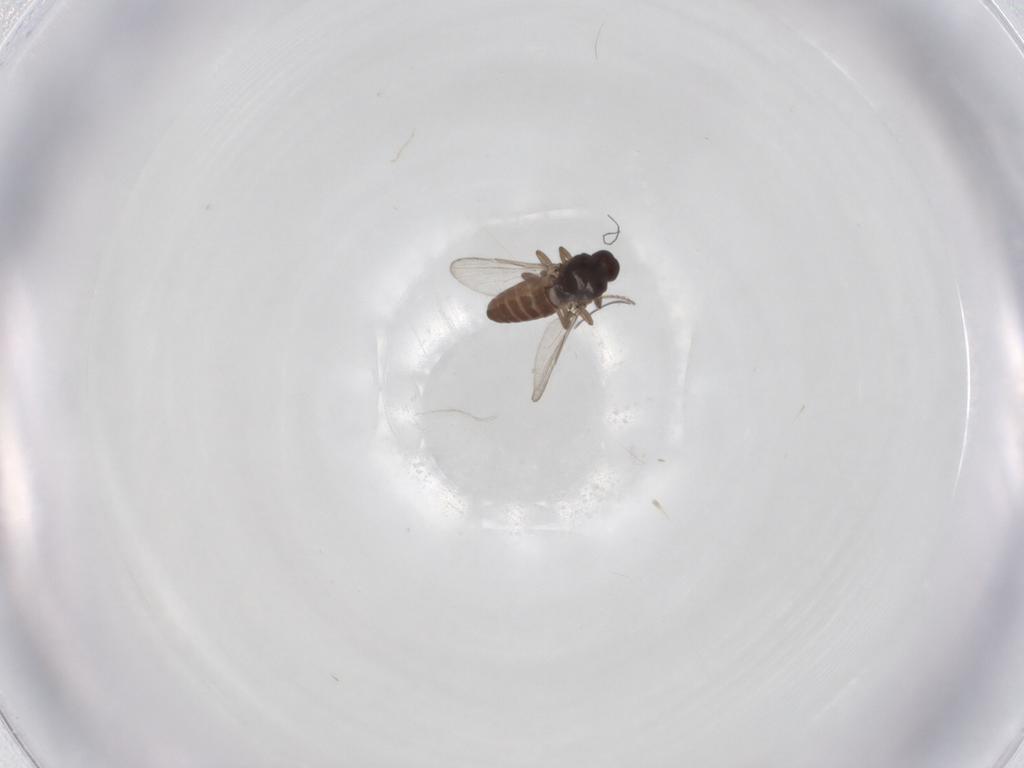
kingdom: Animalia
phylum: Arthropoda
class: Insecta
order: Diptera
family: Ceratopogonidae
